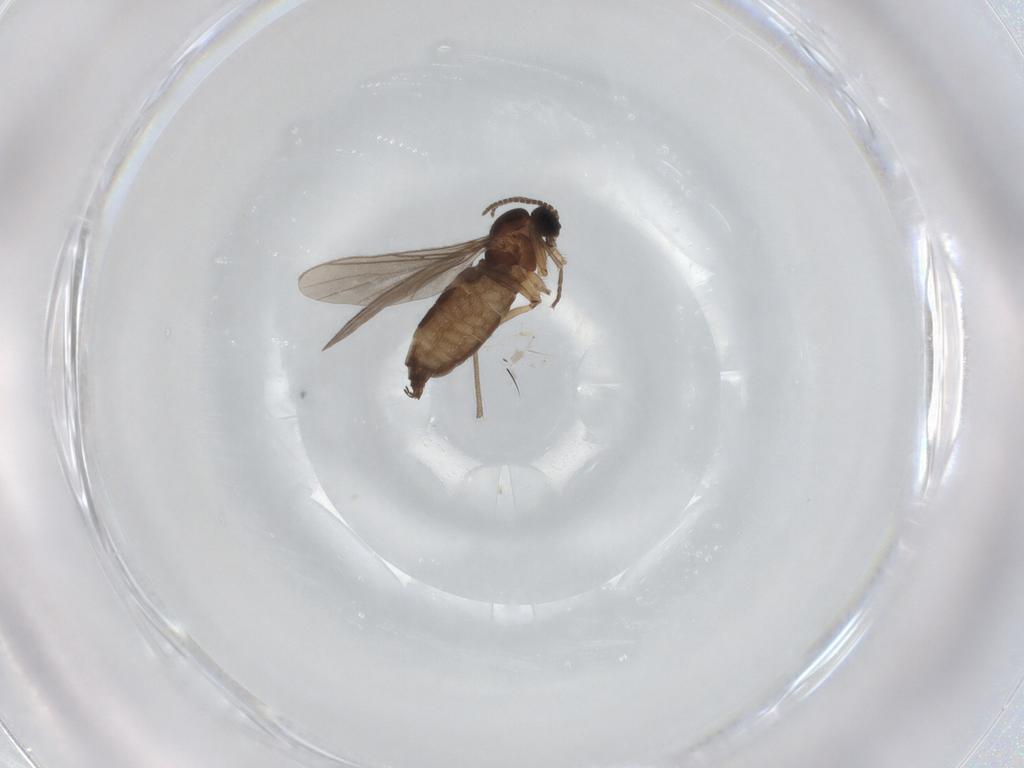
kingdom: Animalia
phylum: Arthropoda
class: Insecta
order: Diptera
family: Sciaridae
